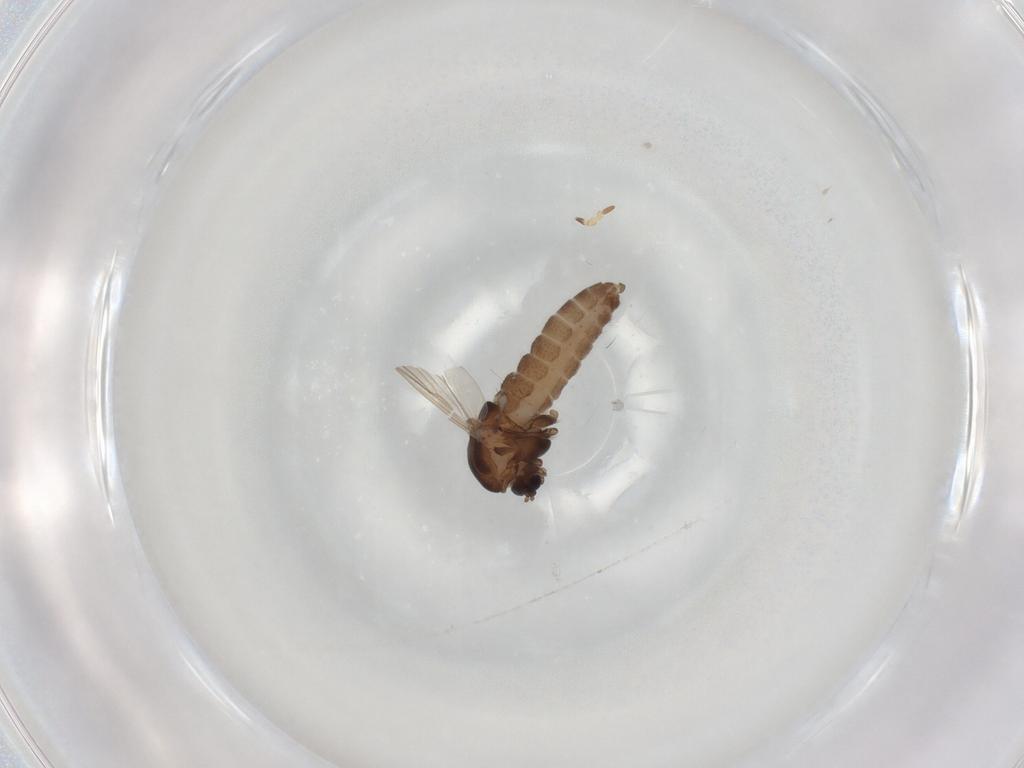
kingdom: Animalia
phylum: Arthropoda
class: Insecta
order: Diptera
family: Chironomidae
